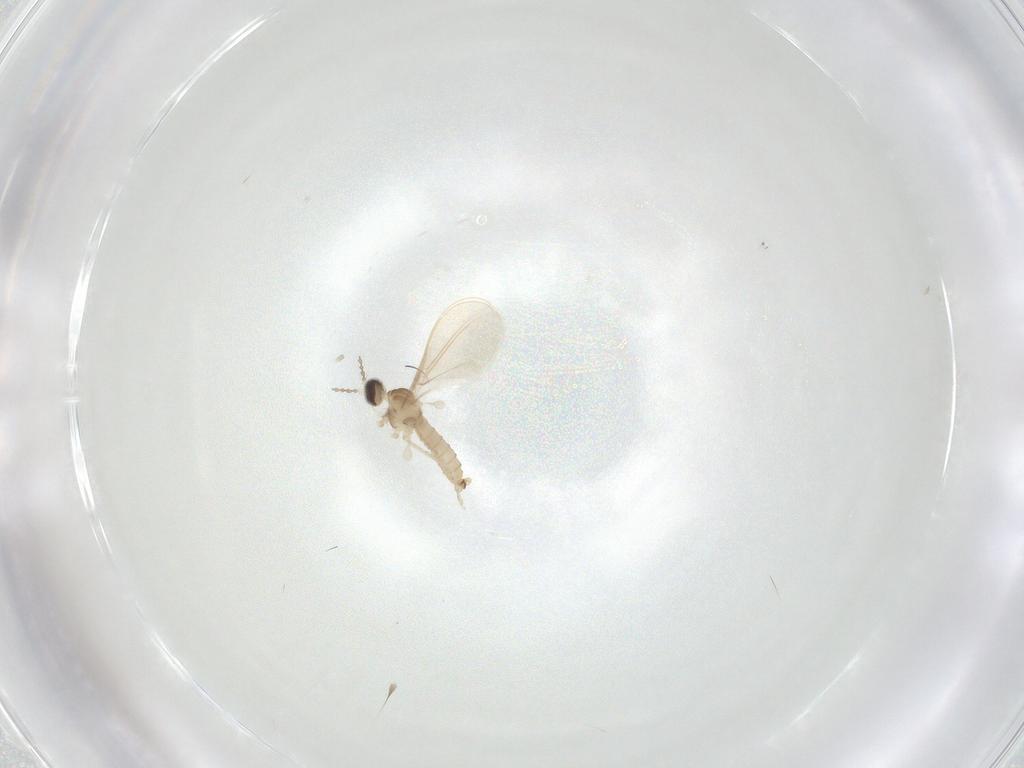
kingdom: Animalia
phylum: Arthropoda
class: Insecta
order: Diptera
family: Cecidomyiidae
